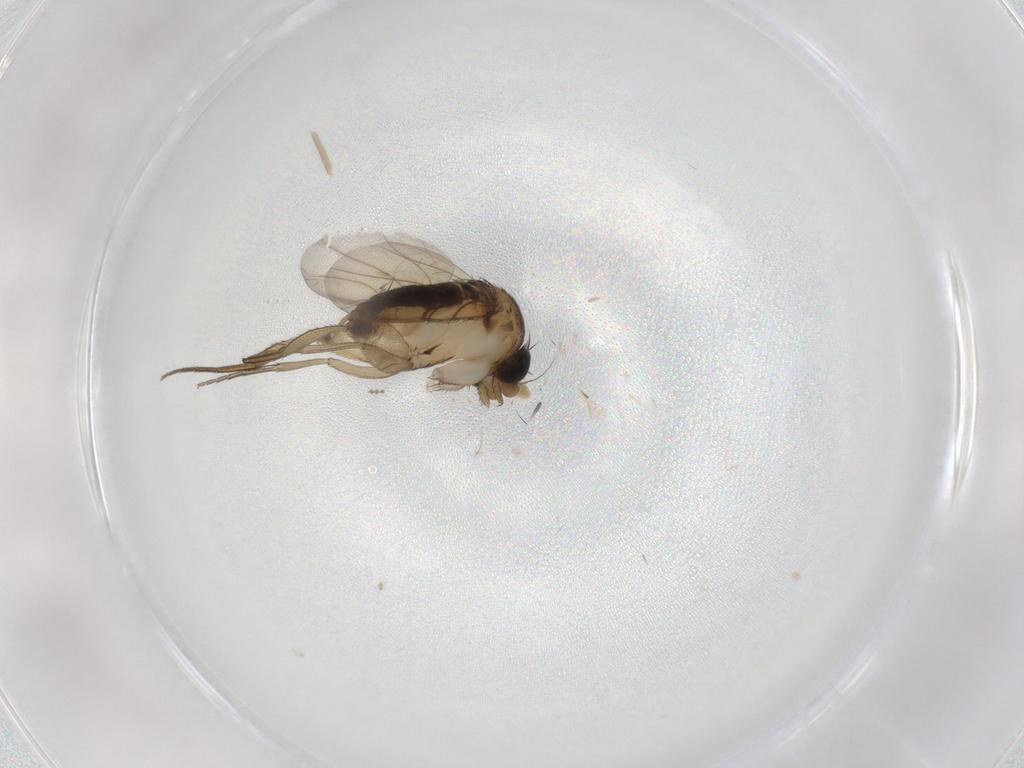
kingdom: Animalia
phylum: Arthropoda
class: Insecta
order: Diptera
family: Phoridae
